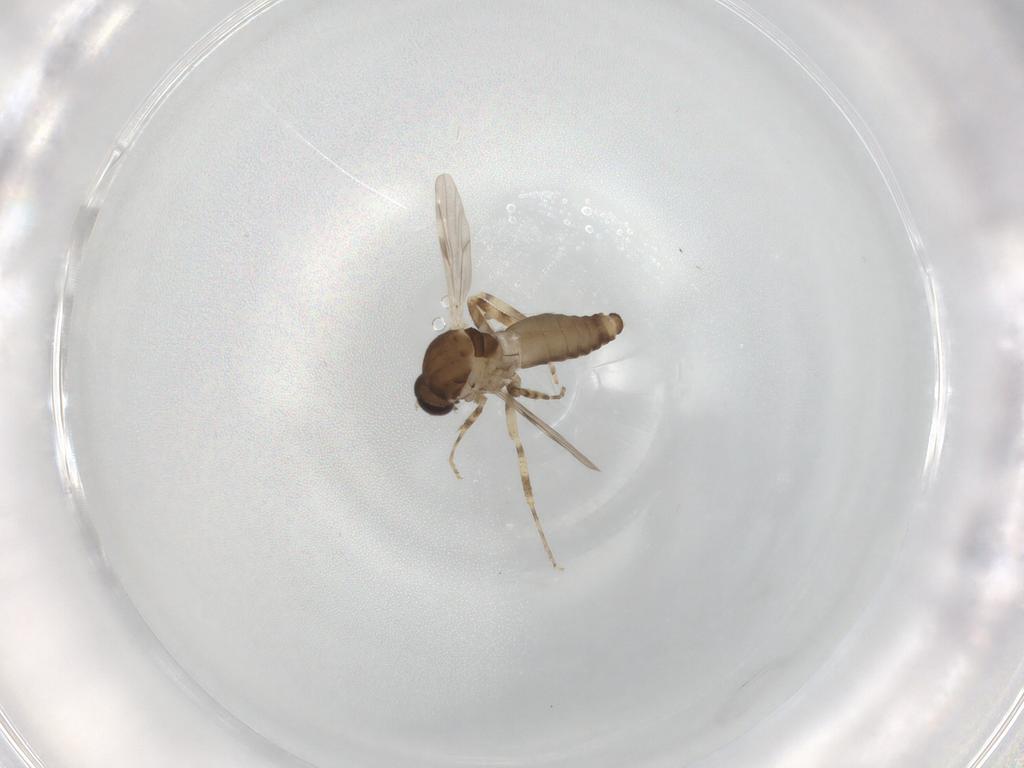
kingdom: Animalia
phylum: Arthropoda
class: Insecta
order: Diptera
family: Ceratopogonidae
